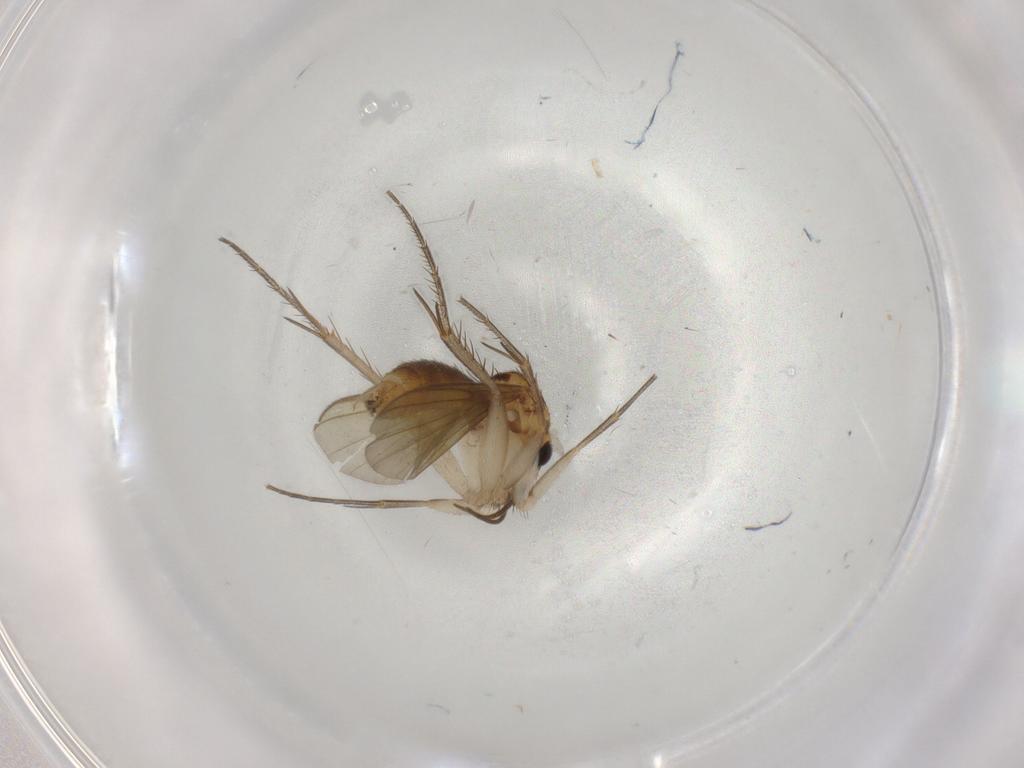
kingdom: Animalia
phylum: Arthropoda
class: Insecta
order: Diptera
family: Mycetophilidae
